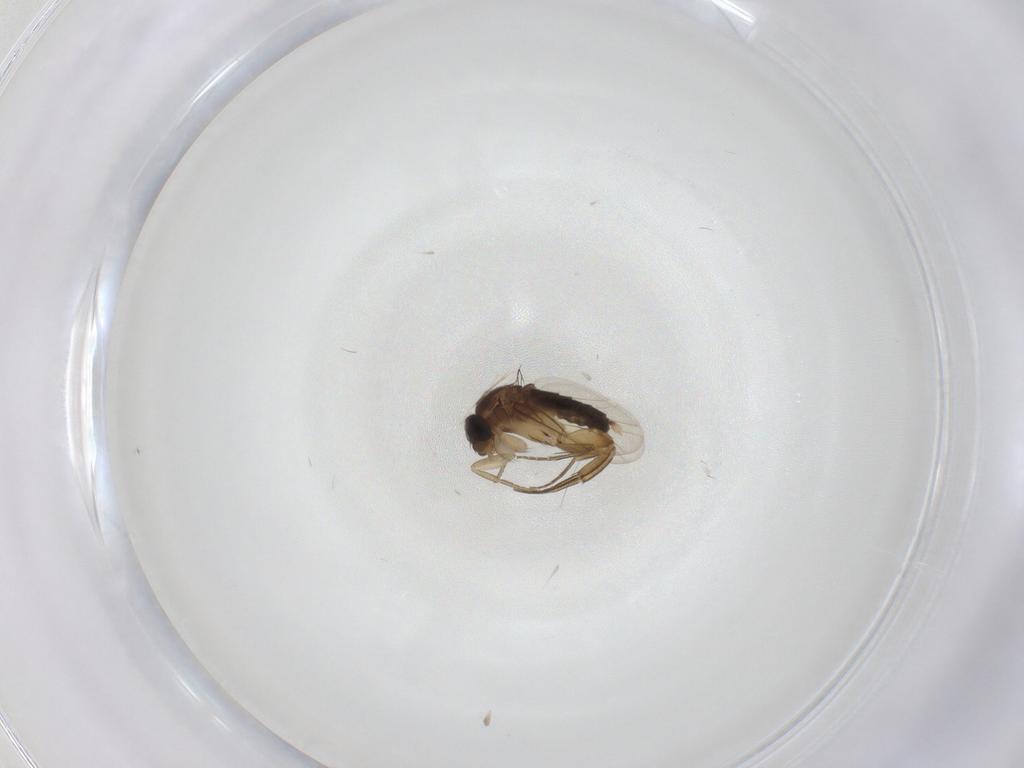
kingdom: Animalia
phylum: Arthropoda
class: Insecta
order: Diptera
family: Phoridae
